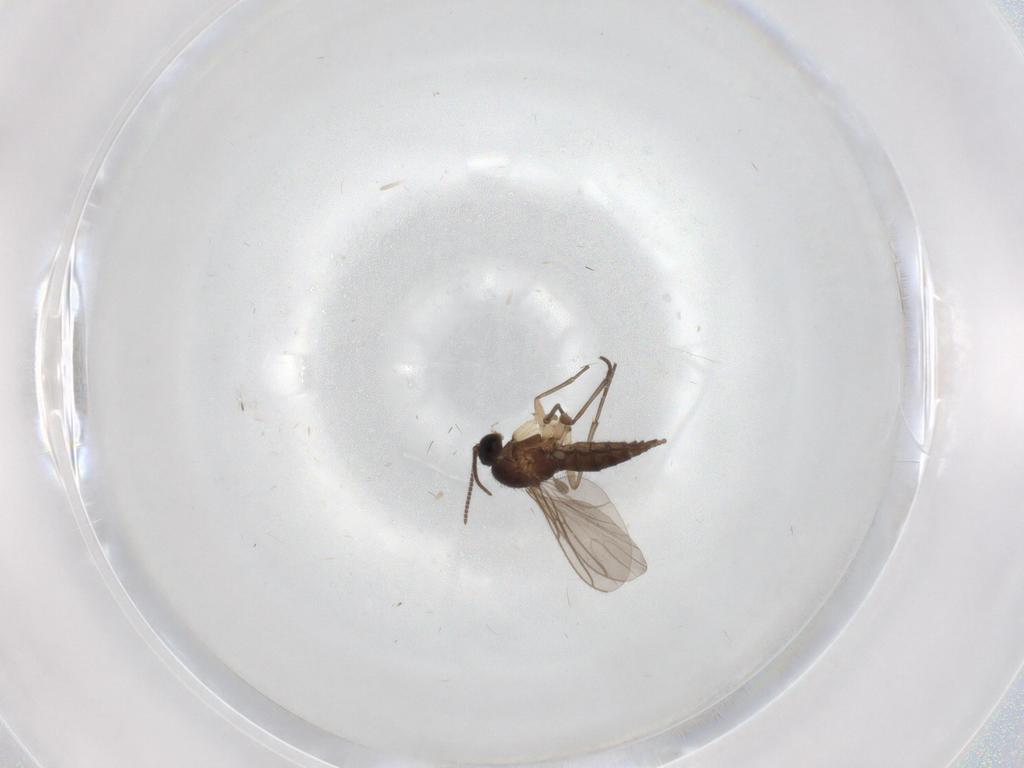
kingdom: Animalia
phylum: Arthropoda
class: Insecta
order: Diptera
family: Sciaridae
